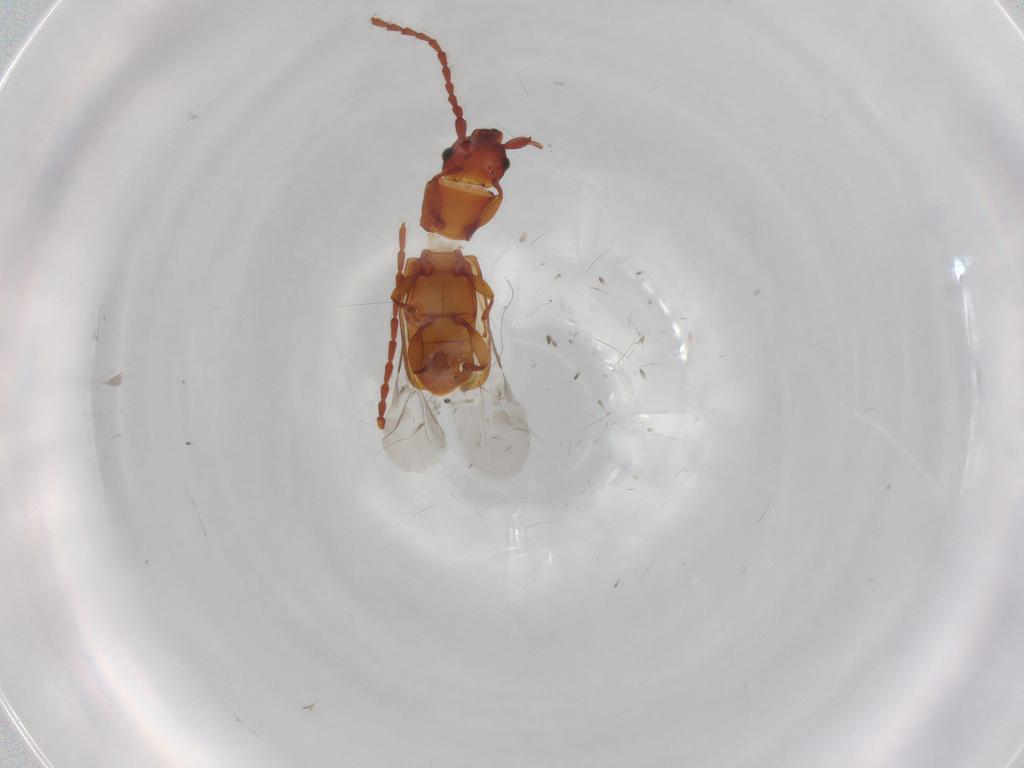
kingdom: Animalia
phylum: Arthropoda
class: Insecta
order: Coleoptera
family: Laemophloeidae
